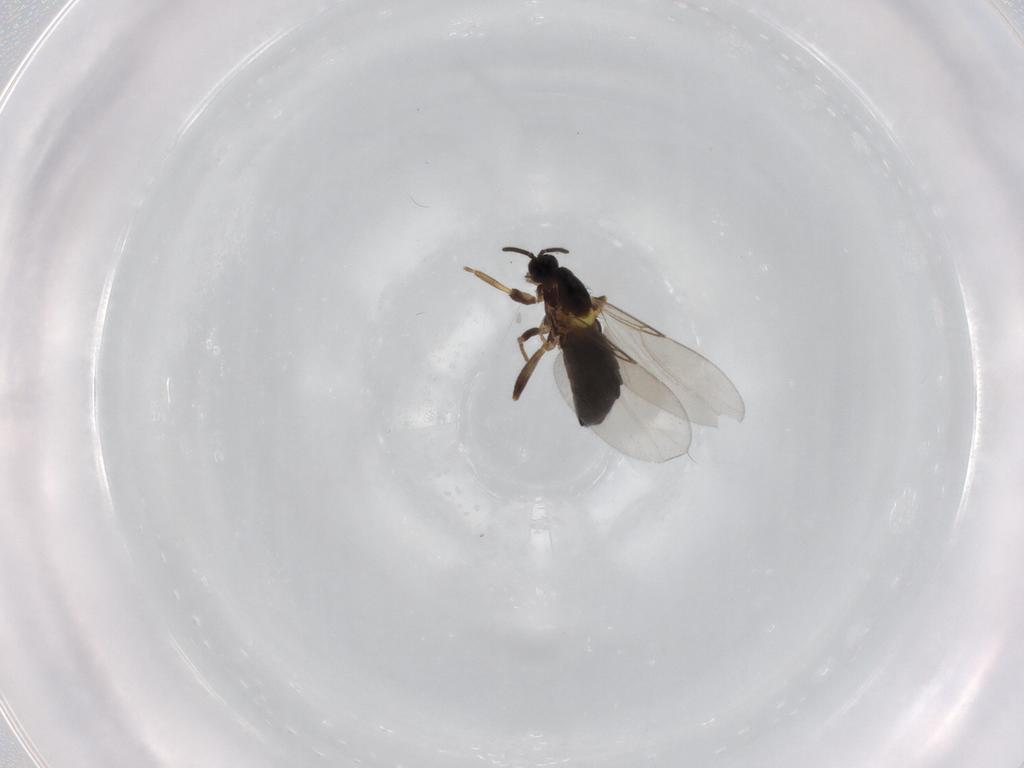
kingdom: Animalia
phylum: Arthropoda
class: Insecta
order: Diptera
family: Scatopsidae
